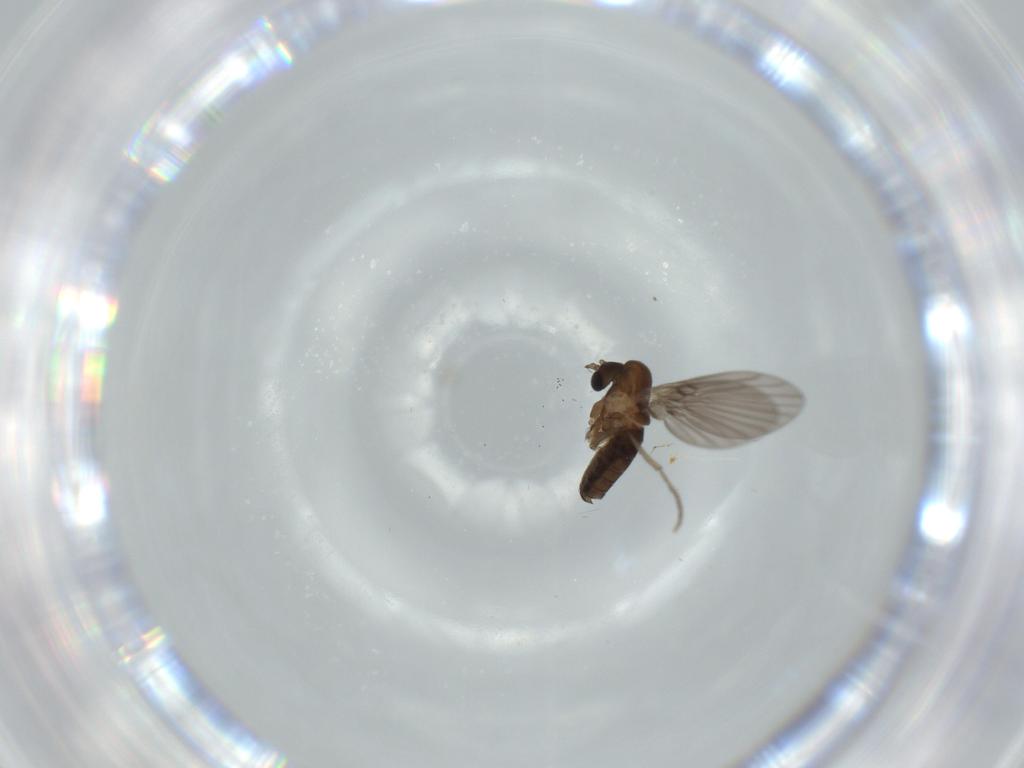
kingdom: Animalia
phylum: Arthropoda
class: Insecta
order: Diptera
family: Psychodidae
